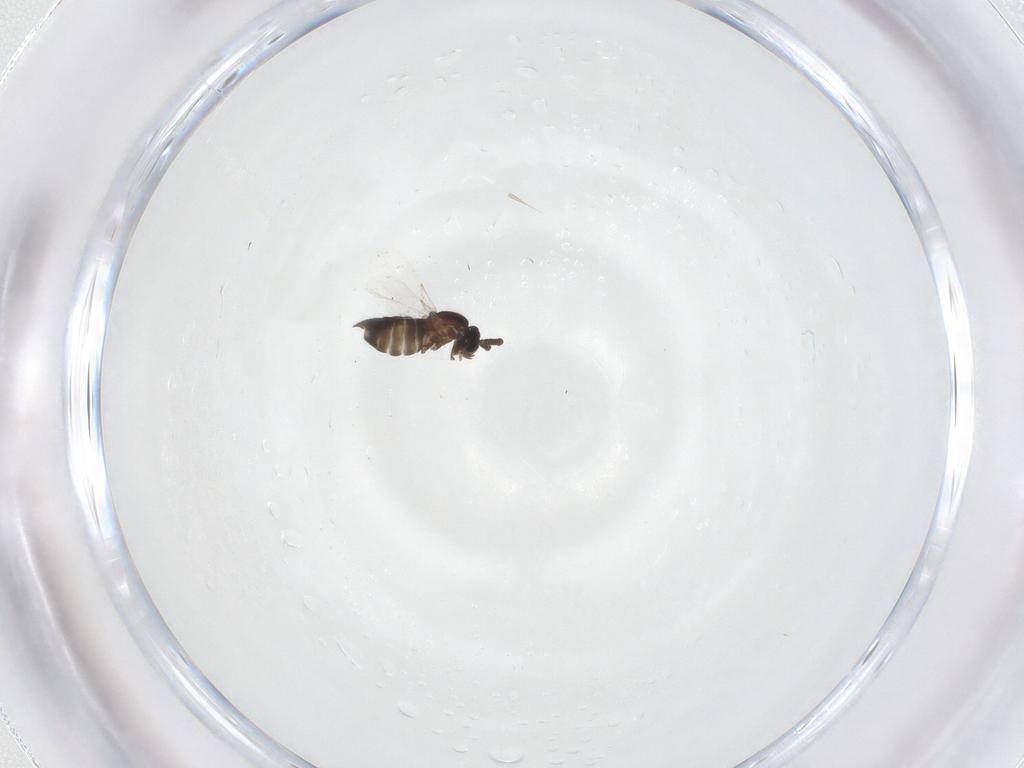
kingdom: Animalia
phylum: Arthropoda
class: Insecta
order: Diptera
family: Scatopsidae
